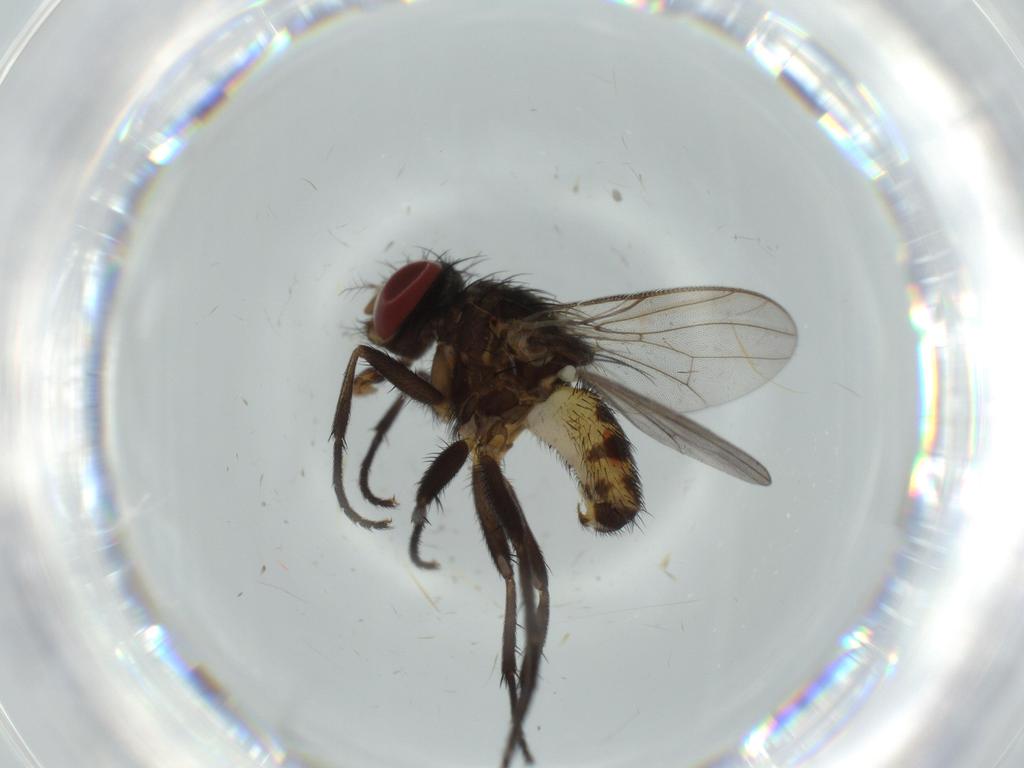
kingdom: Animalia
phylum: Arthropoda
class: Insecta
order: Diptera
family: Anthomyiidae
